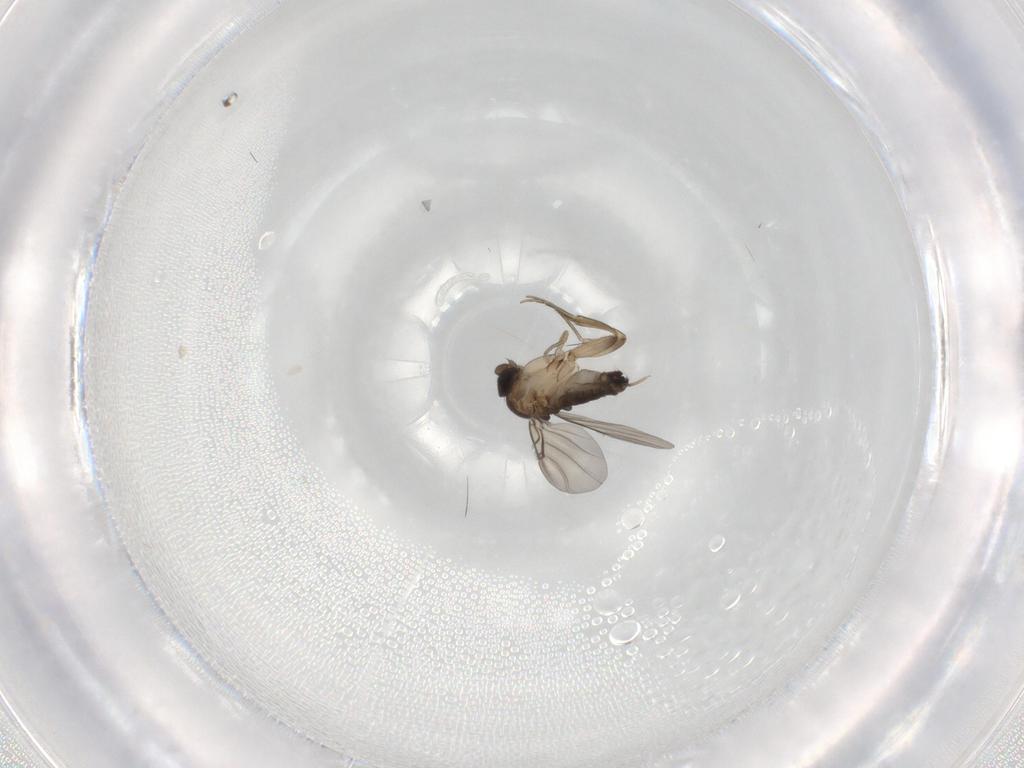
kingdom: Animalia
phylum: Arthropoda
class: Insecta
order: Diptera
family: Phoridae
